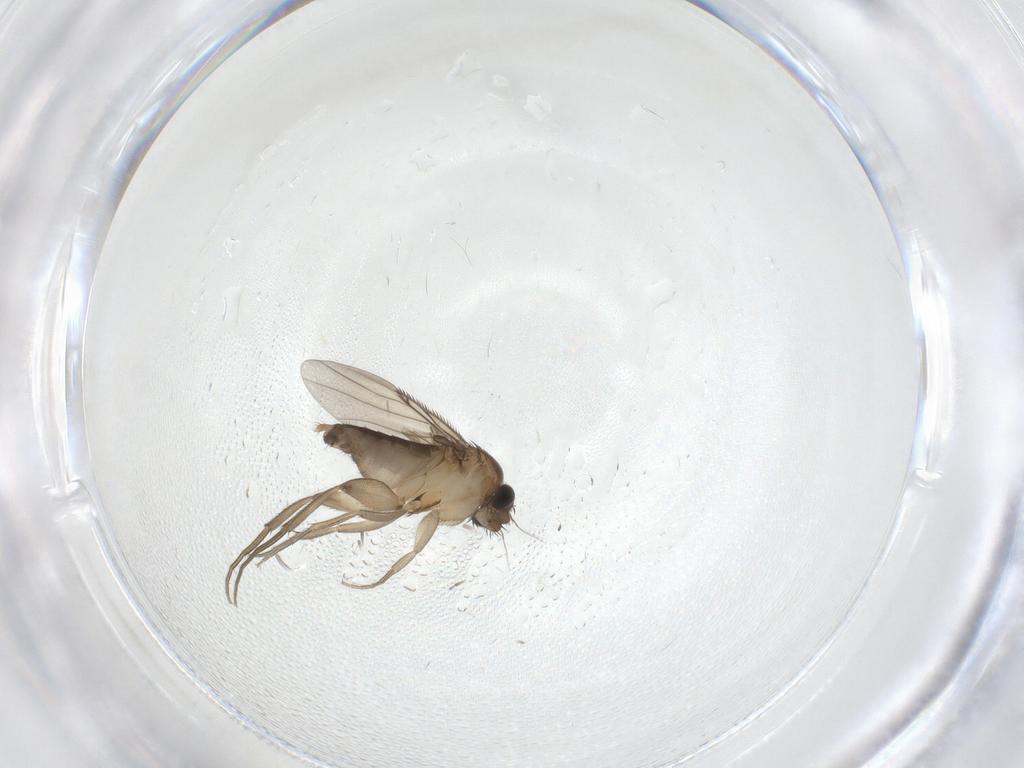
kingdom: Animalia
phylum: Arthropoda
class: Insecta
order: Diptera
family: Phoridae
